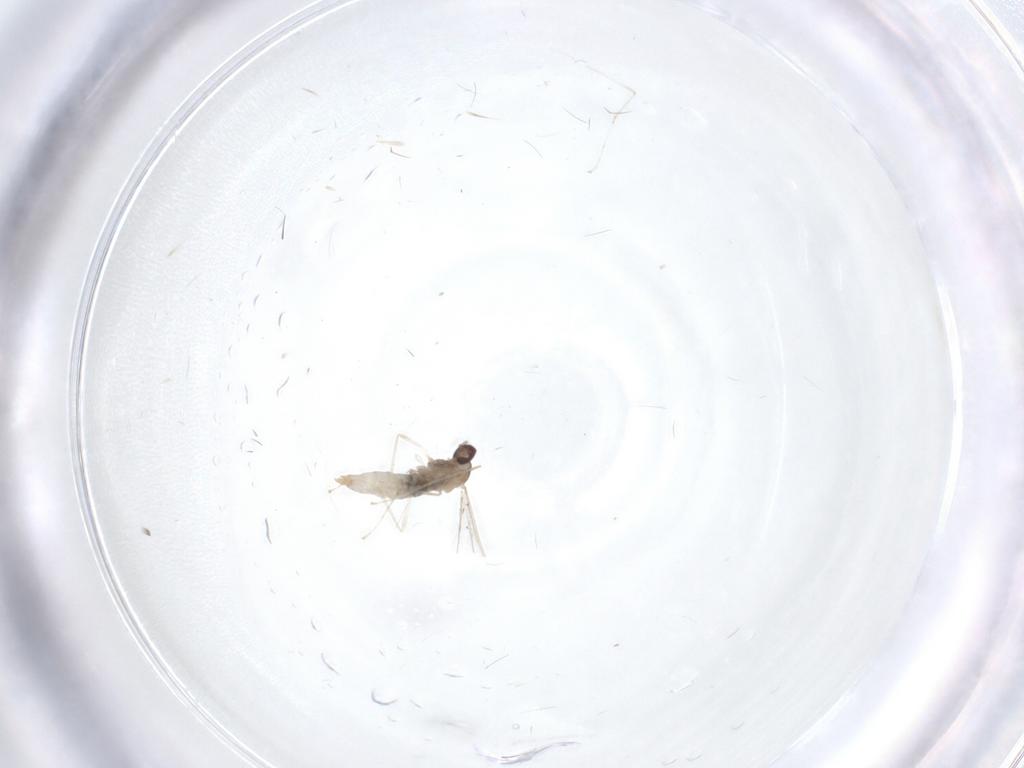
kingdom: Animalia
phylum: Arthropoda
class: Insecta
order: Diptera
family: Cecidomyiidae
